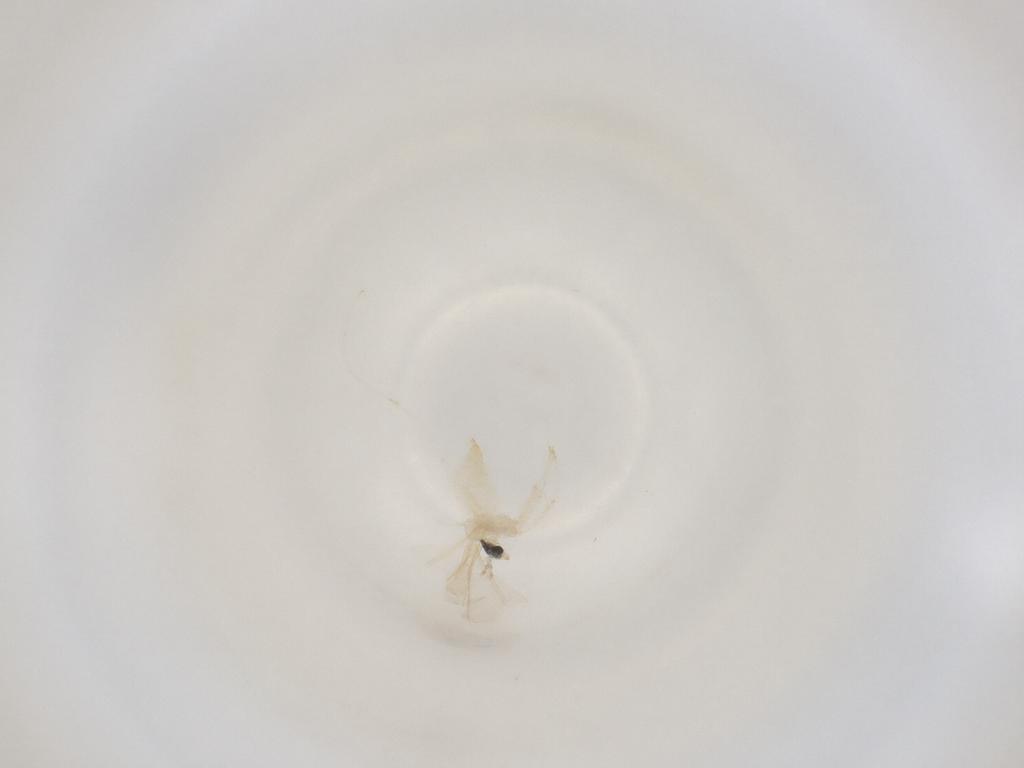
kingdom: Animalia
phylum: Arthropoda
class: Insecta
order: Diptera
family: Cecidomyiidae
